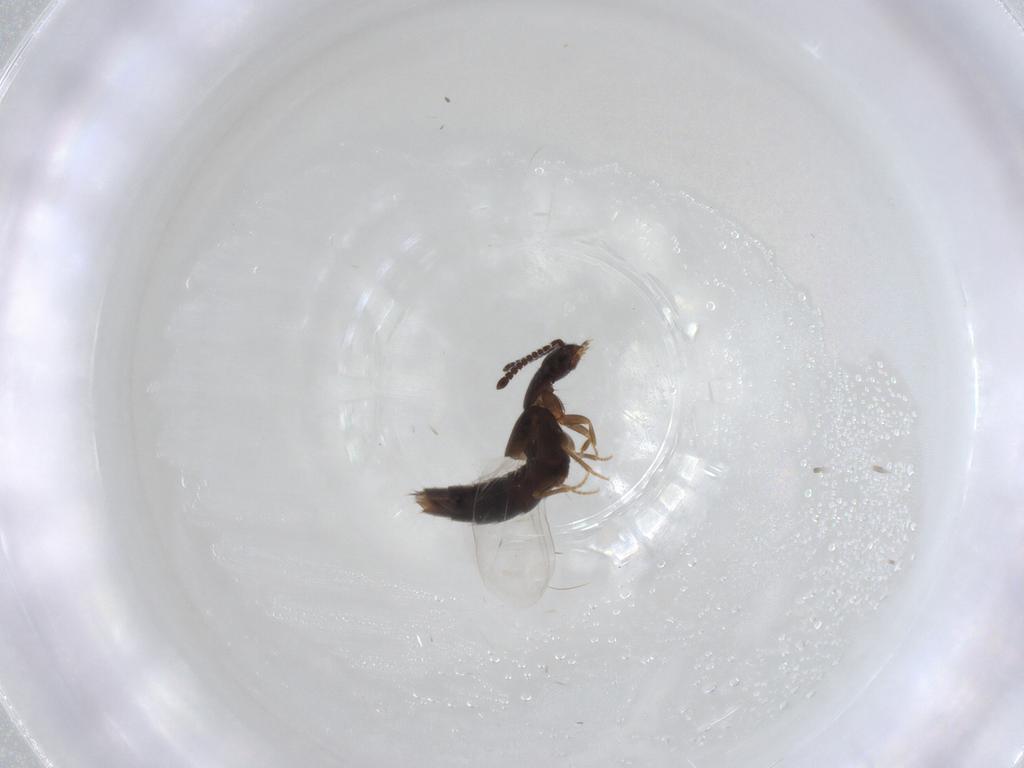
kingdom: Animalia
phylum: Arthropoda
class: Insecta
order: Coleoptera
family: Staphylinidae
